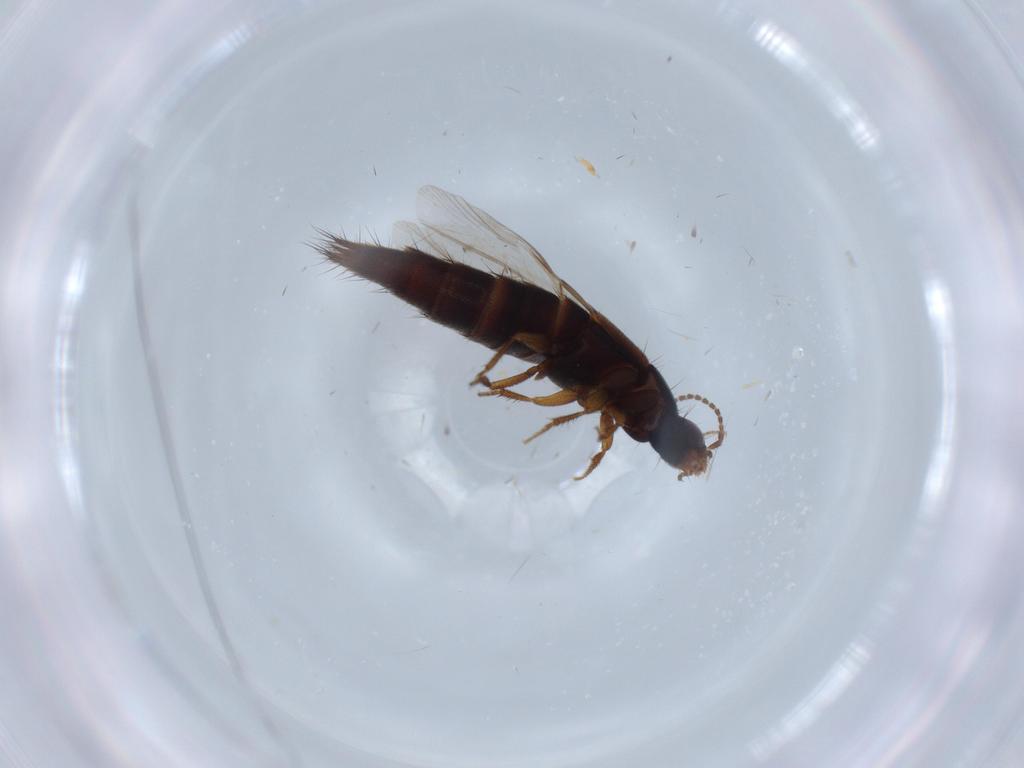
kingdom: Animalia
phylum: Arthropoda
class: Insecta
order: Coleoptera
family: Staphylinidae
